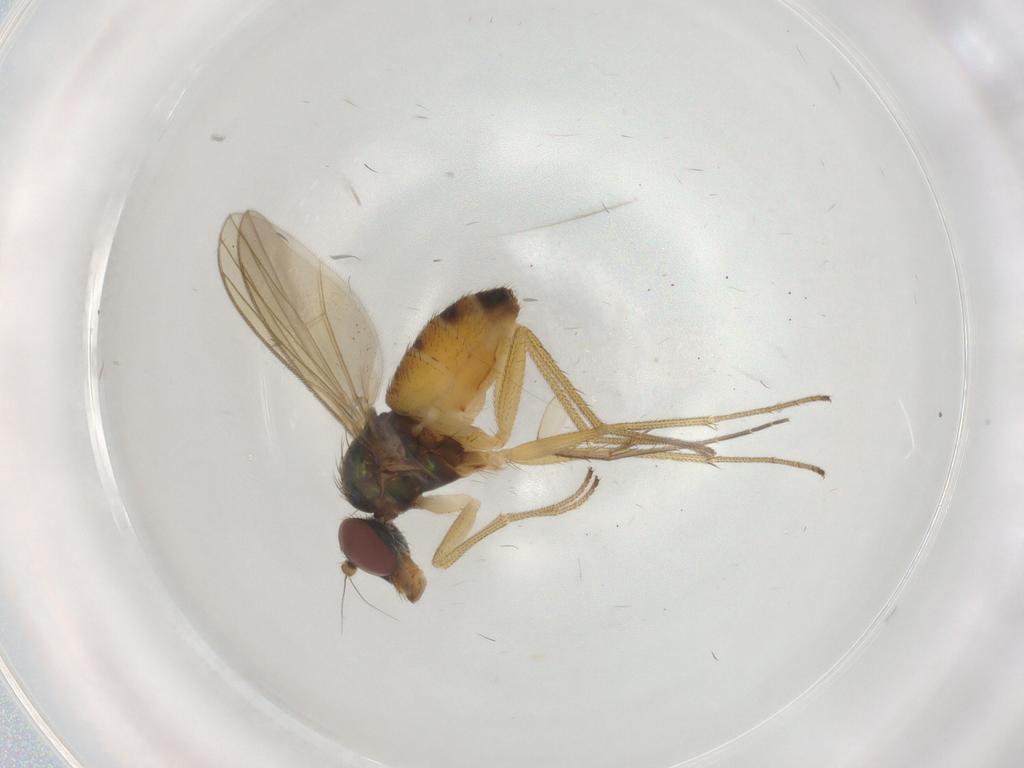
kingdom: Animalia
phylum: Arthropoda
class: Insecta
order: Diptera
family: Dolichopodidae
